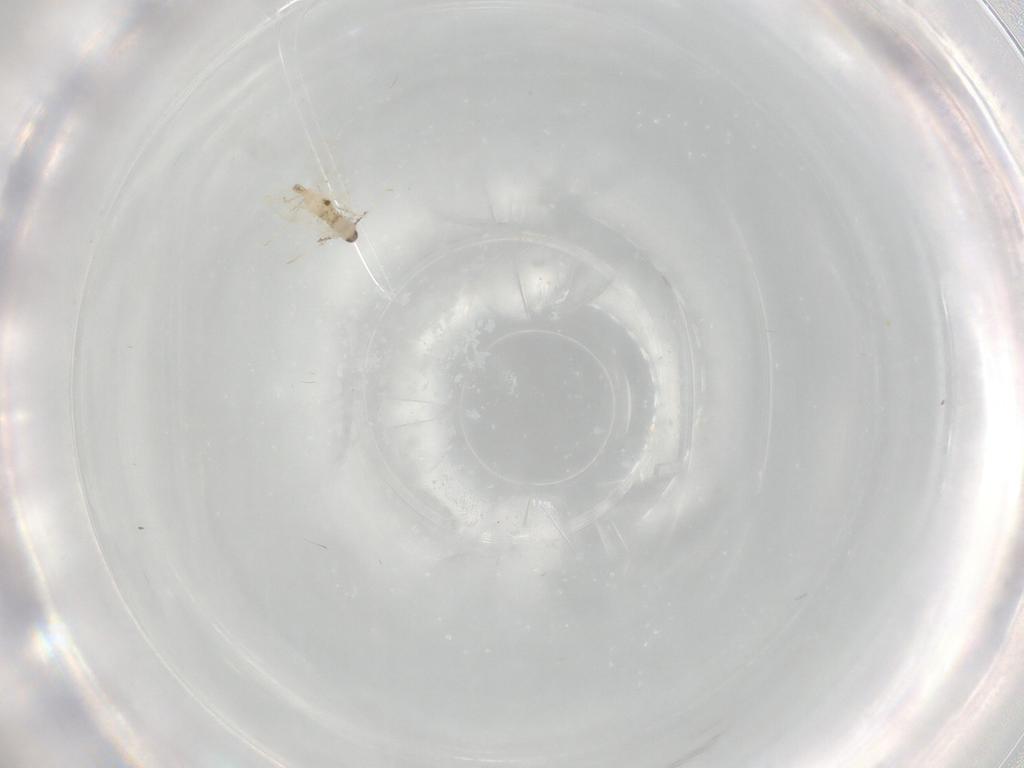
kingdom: Animalia
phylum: Arthropoda
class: Insecta
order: Diptera
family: Cecidomyiidae
